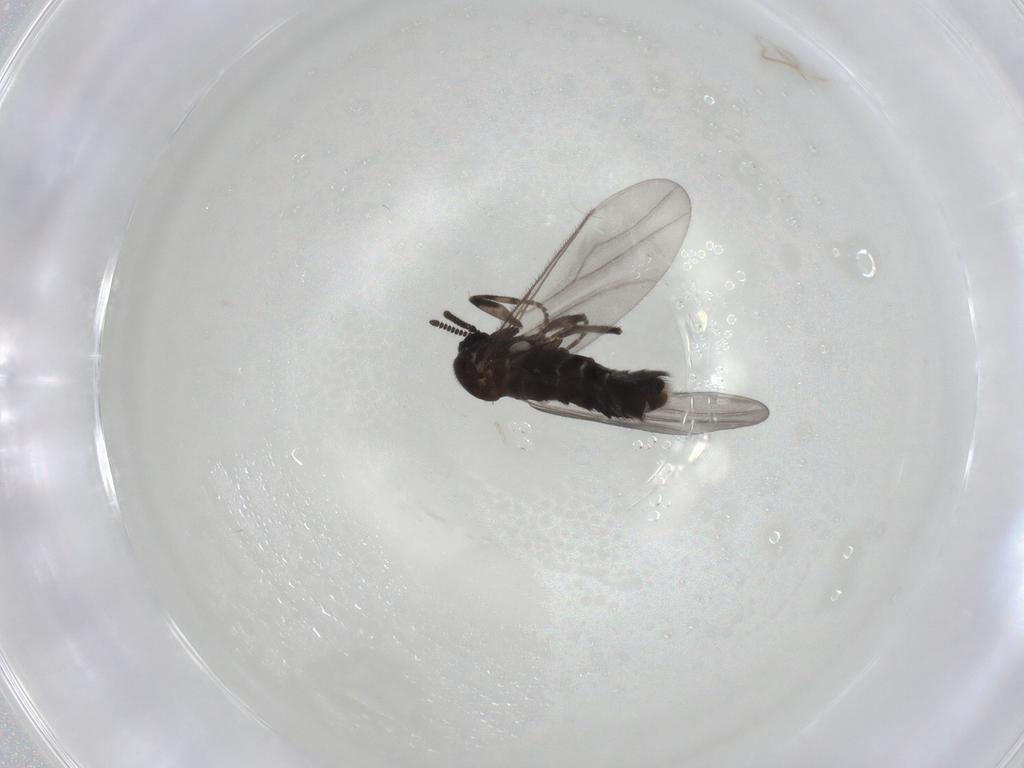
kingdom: Animalia
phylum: Arthropoda
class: Insecta
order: Diptera
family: Scatopsidae
